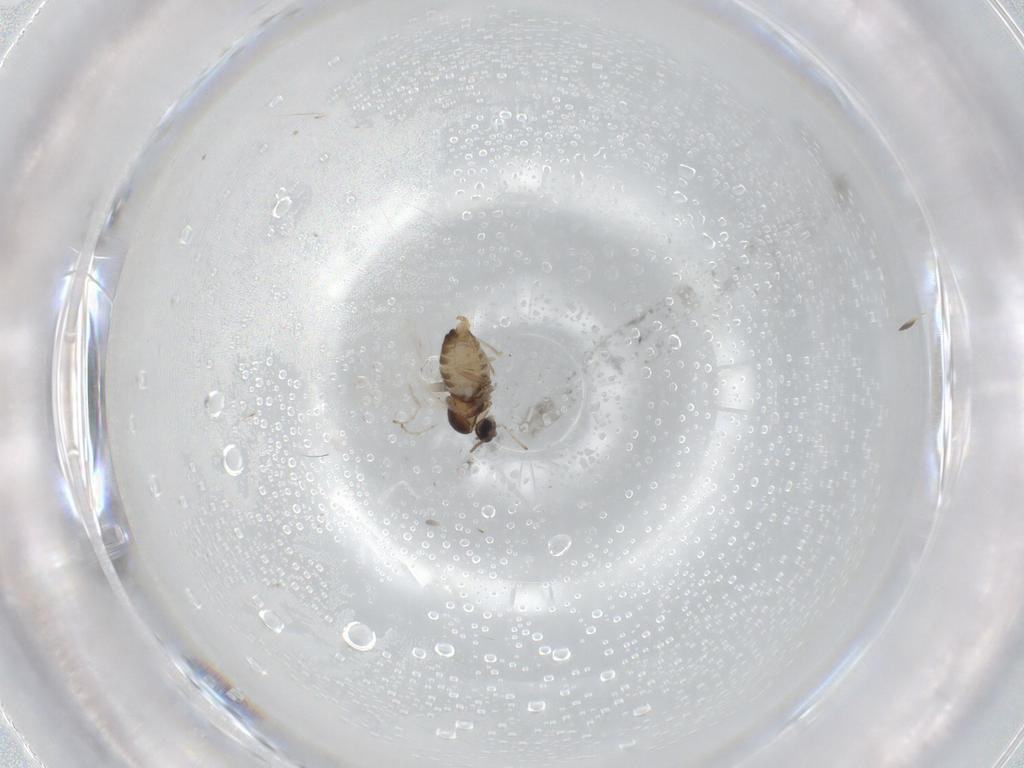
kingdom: Animalia
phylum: Arthropoda
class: Insecta
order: Diptera
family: Cecidomyiidae
